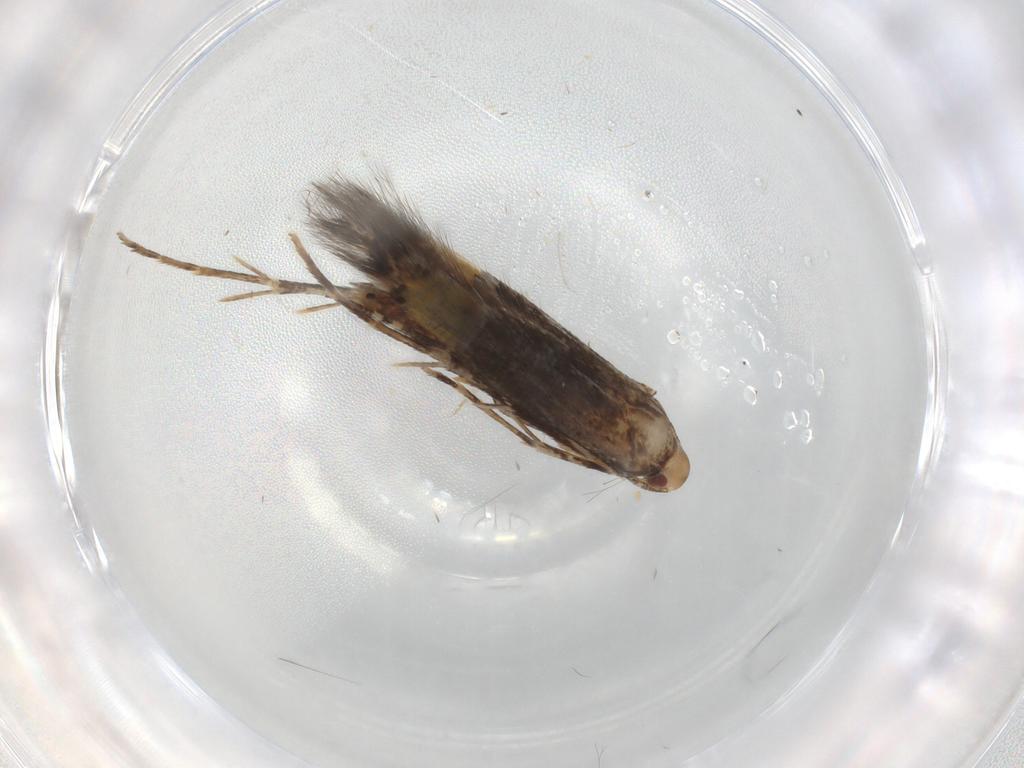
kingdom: Animalia
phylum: Arthropoda
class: Insecta
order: Lepidoptera
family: Cosmopterigidae
